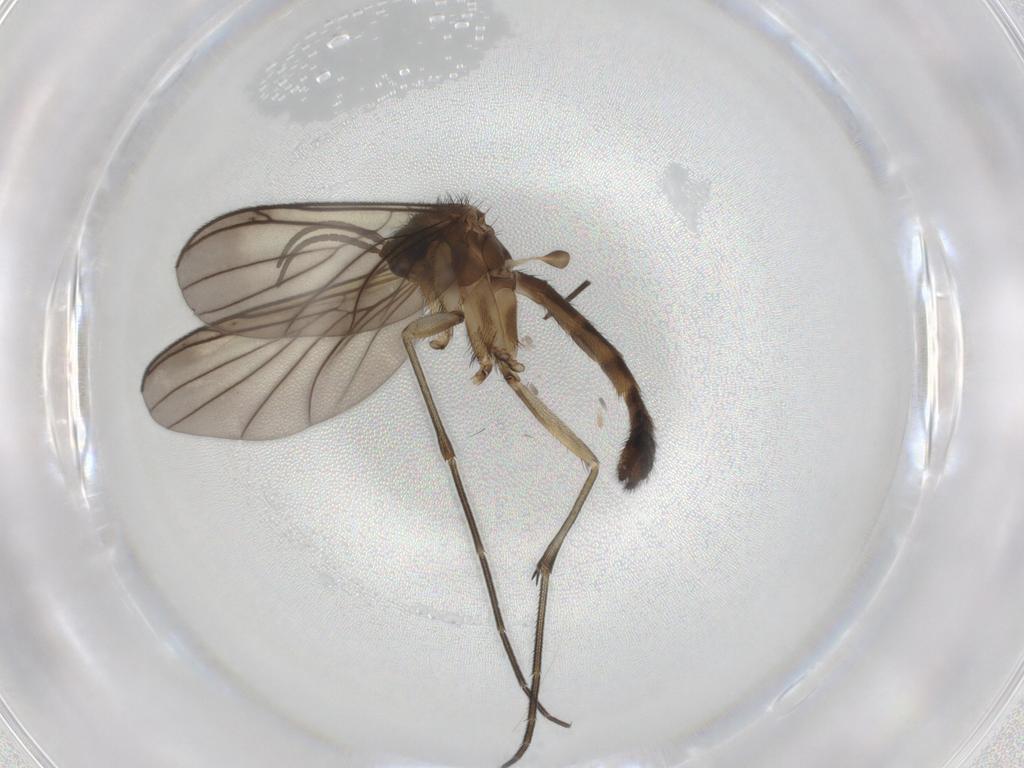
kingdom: Animalia
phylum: Arthropoda
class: Insecta
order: Diptera
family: Keroplatidae
